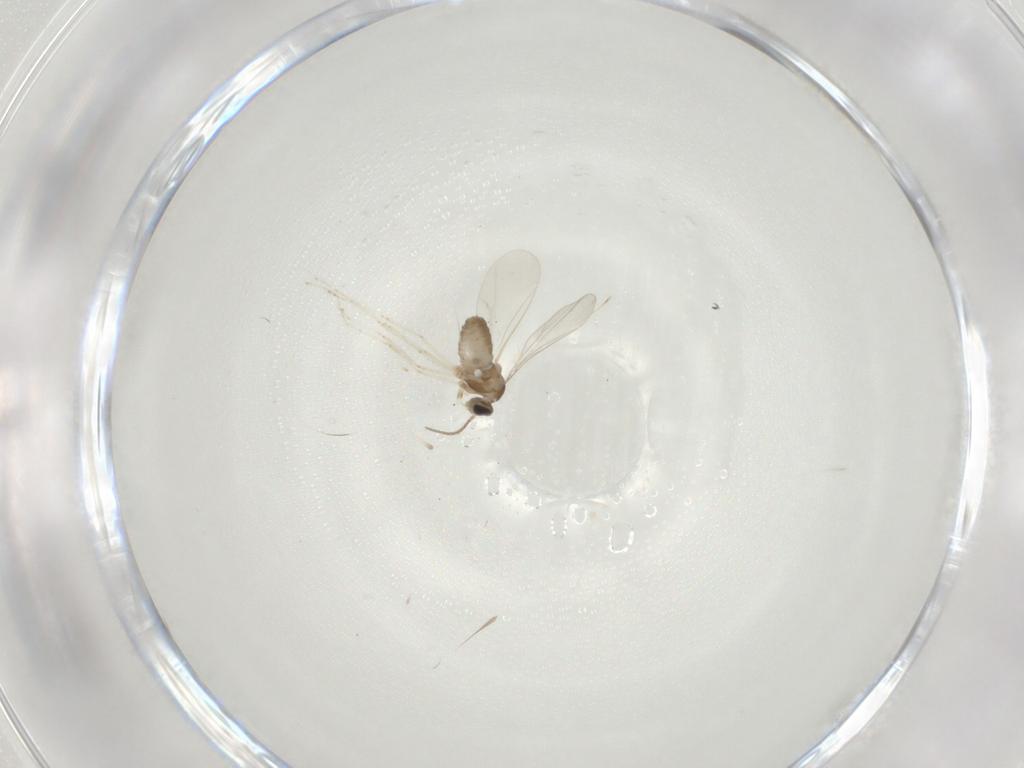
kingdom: Animalia
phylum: Arthropoda
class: Insecta
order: Diptera
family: Cecidomyiidae
